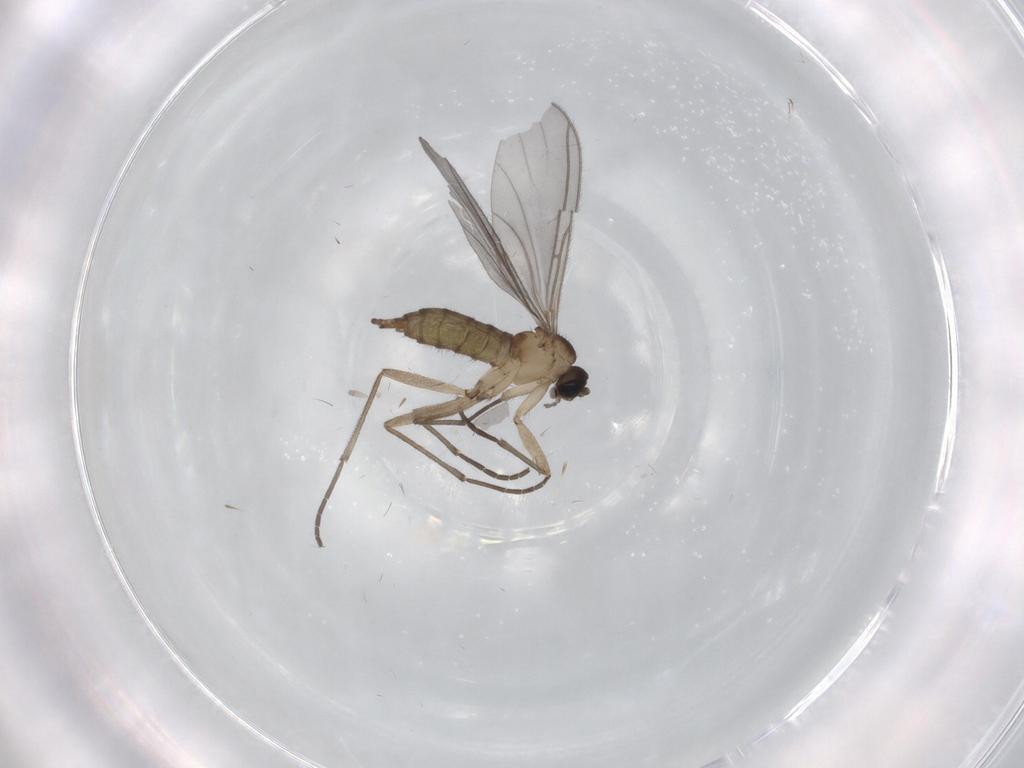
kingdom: Animalia
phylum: Arthropoda
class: Insecta
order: Diptera
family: Sciaridae
